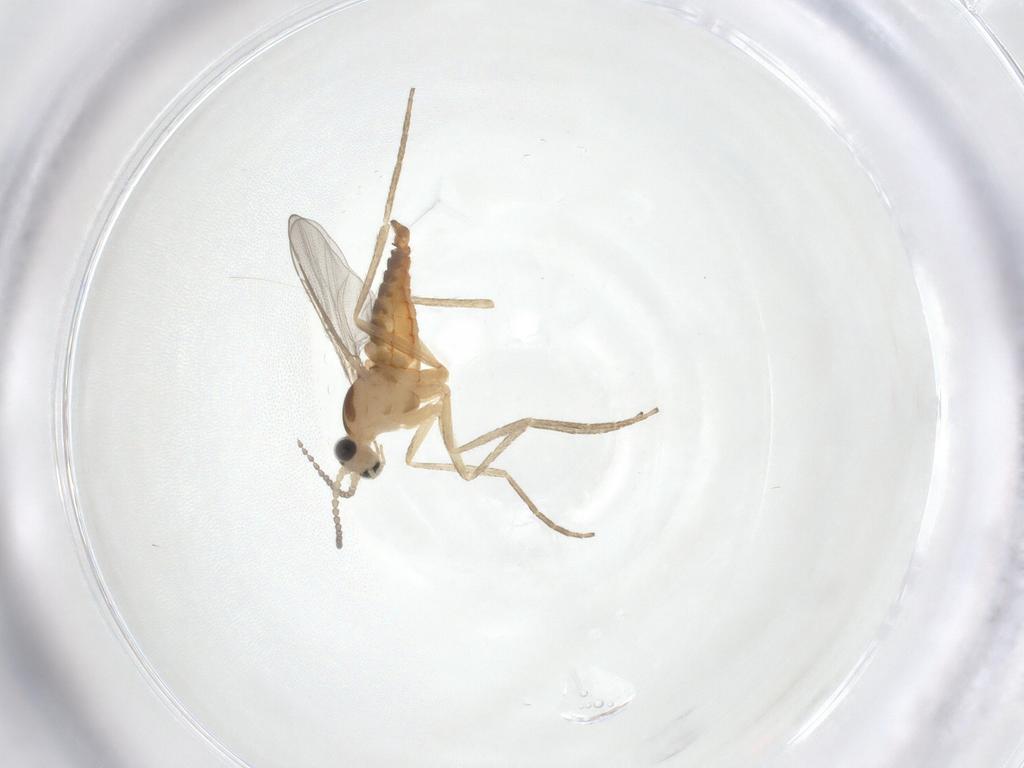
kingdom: Animalia
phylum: Arthropoda
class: Insecta
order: Diptera
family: Cecidomyiidae
